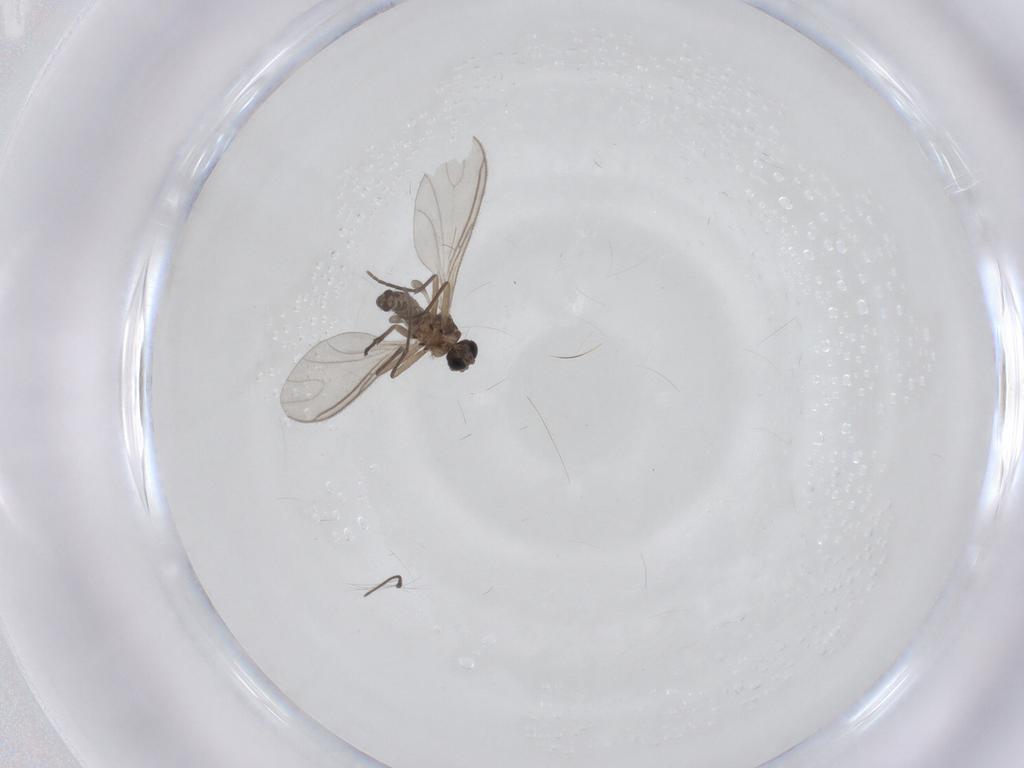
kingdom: Animalia
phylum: Arthropoda
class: Insecta
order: Diptera
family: Sciaridae
